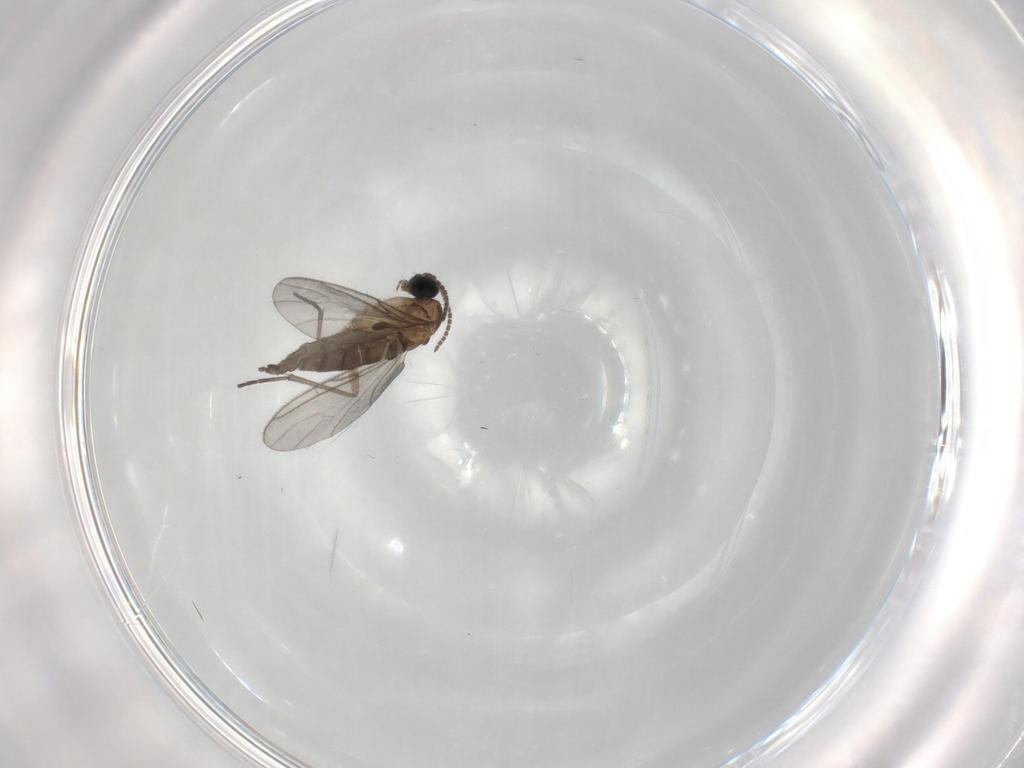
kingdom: Animalia
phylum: Arthropoda
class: Insecta
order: Diptera
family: Sciaridae
